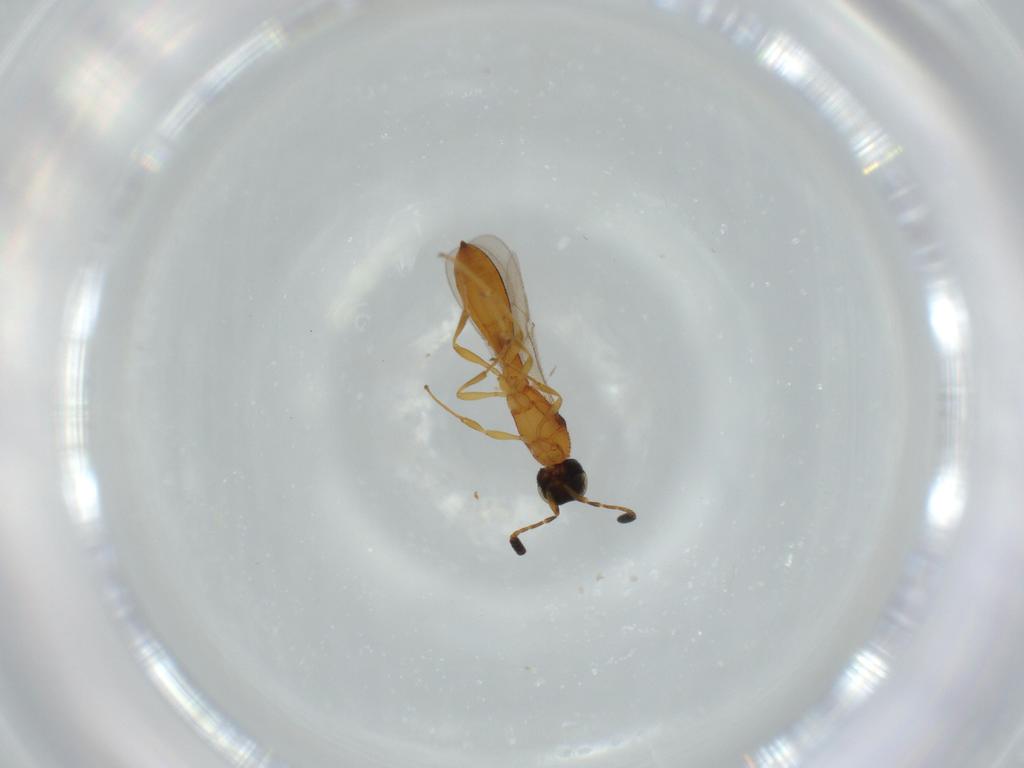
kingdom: Animalia
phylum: Arthropoda
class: Insecta
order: Hymenoptera
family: Scelionidae
